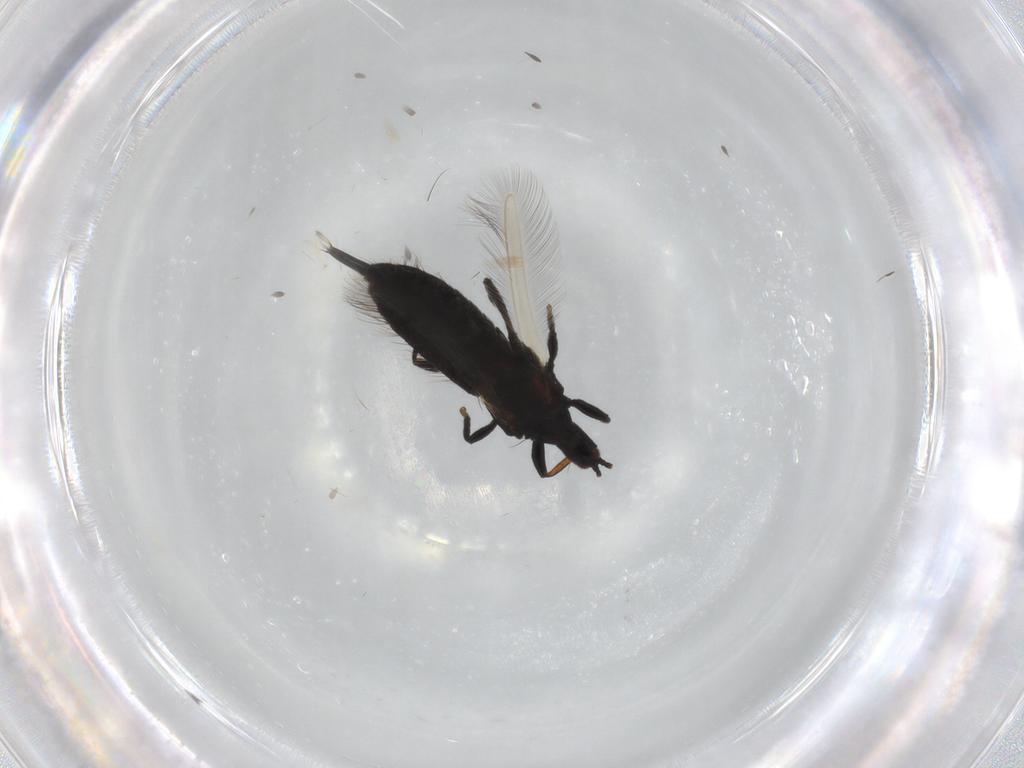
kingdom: Animalia
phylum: Arthropoda
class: Insecta
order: Thysanoptera
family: Phlaeothripidae
